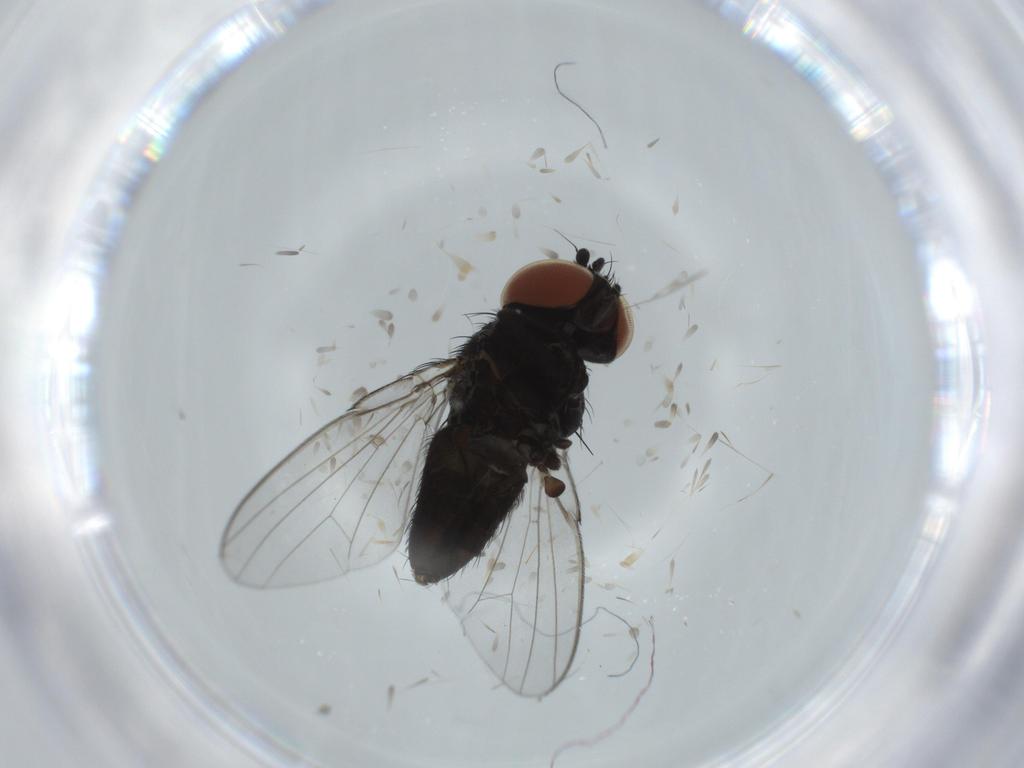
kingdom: Animalia
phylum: Arthropoda
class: Insecta
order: Diptera
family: Milichiidae
